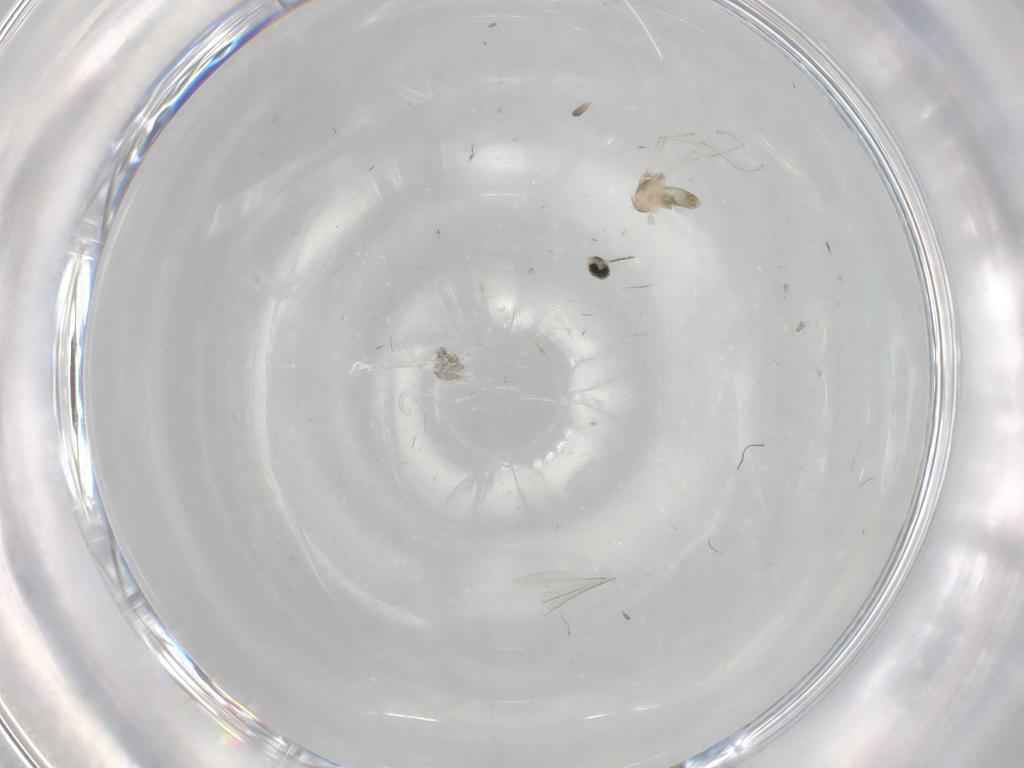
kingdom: Animalia
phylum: Arthropoda
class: Insecta
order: Diptera
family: Cecidomyiidae
